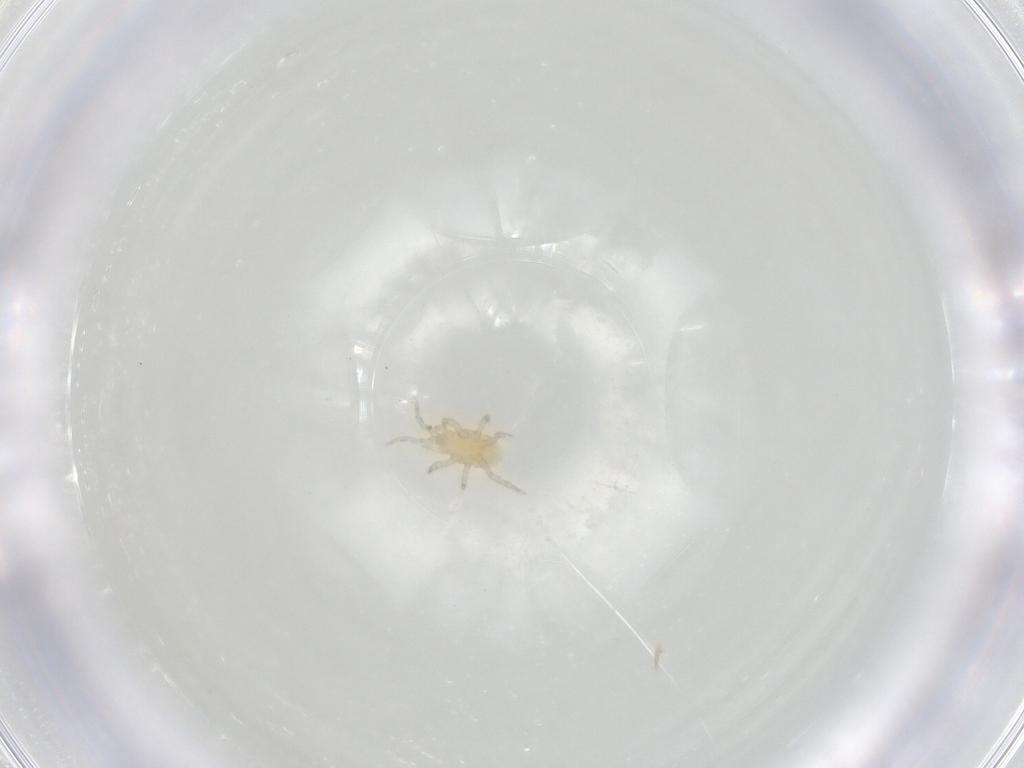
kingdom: Animalia
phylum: Arthropoda
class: Arachnida
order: Mesostigmata
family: Parasitidae
